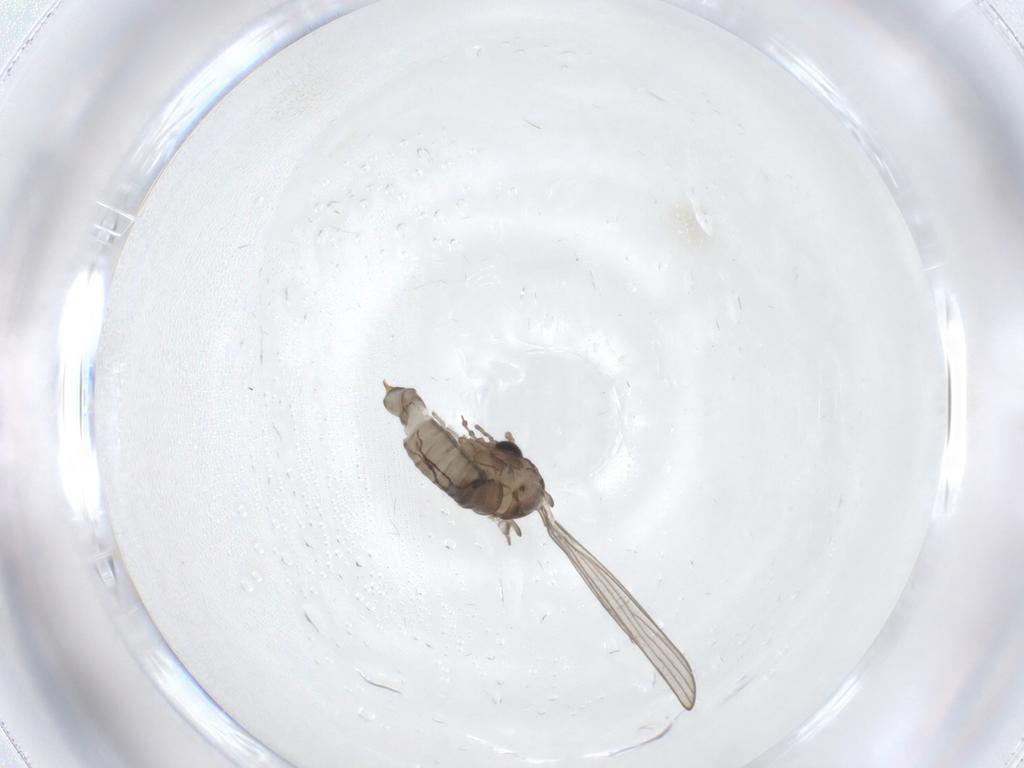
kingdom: Animalia
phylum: Arthropoda
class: Insecta
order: Diptera
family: Psychodidae
